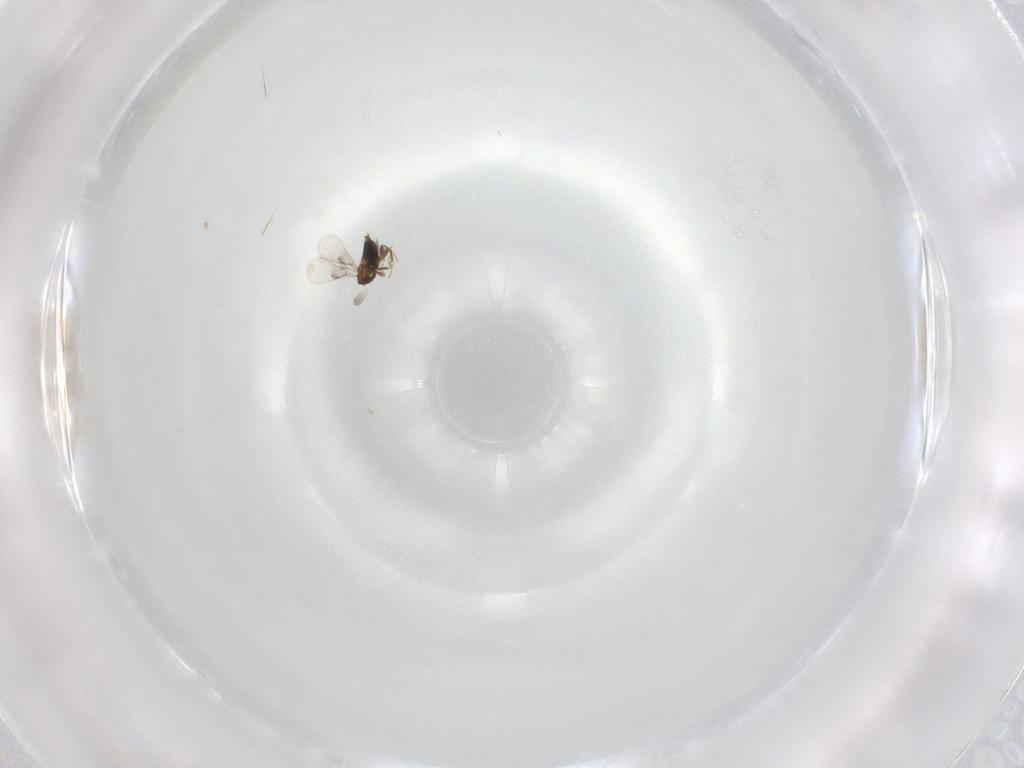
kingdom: Animalia
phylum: Arthropoda
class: Insecta
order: Hymenoptera
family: Trichogrammatidae
